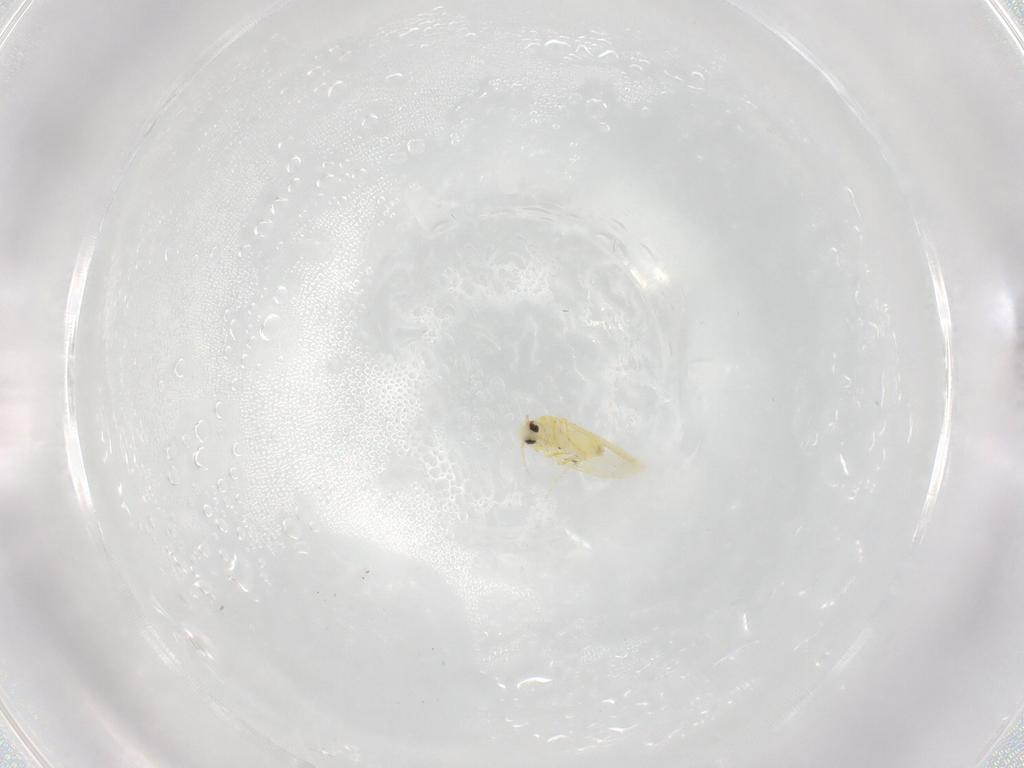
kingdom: Animalia
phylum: Arthropoda
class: Insecta
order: Hemiptera
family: Aleyrodidae
